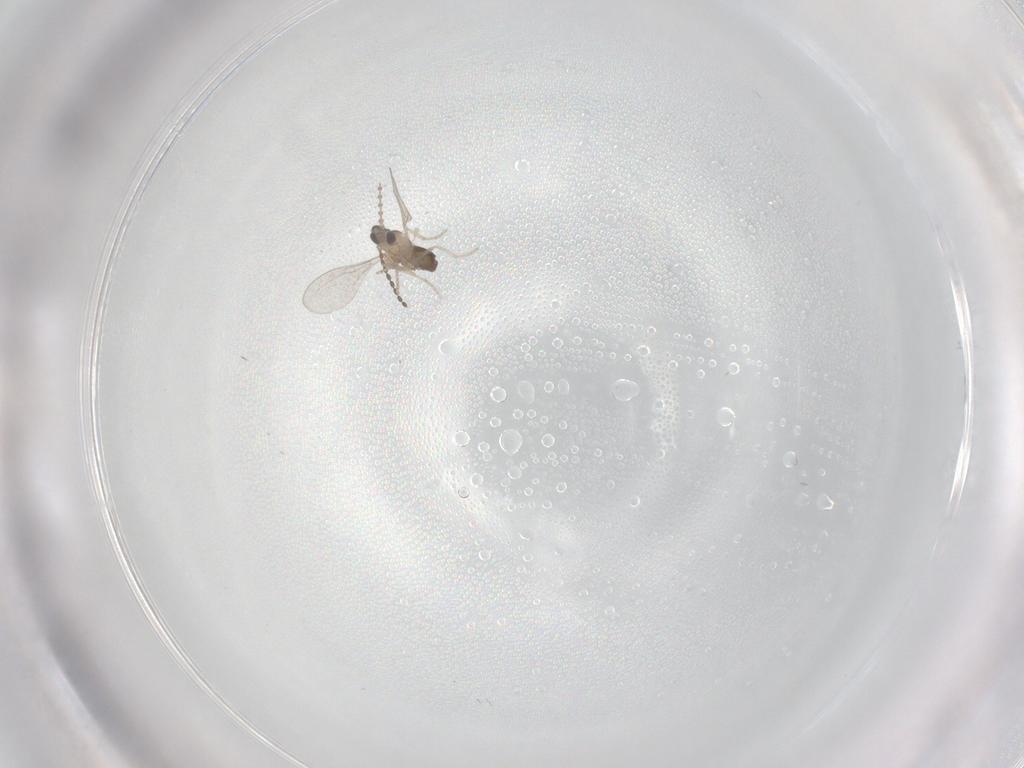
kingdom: Animalia
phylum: Arthropoda
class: Insecta
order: Diptera
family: Cecidomyiidae
